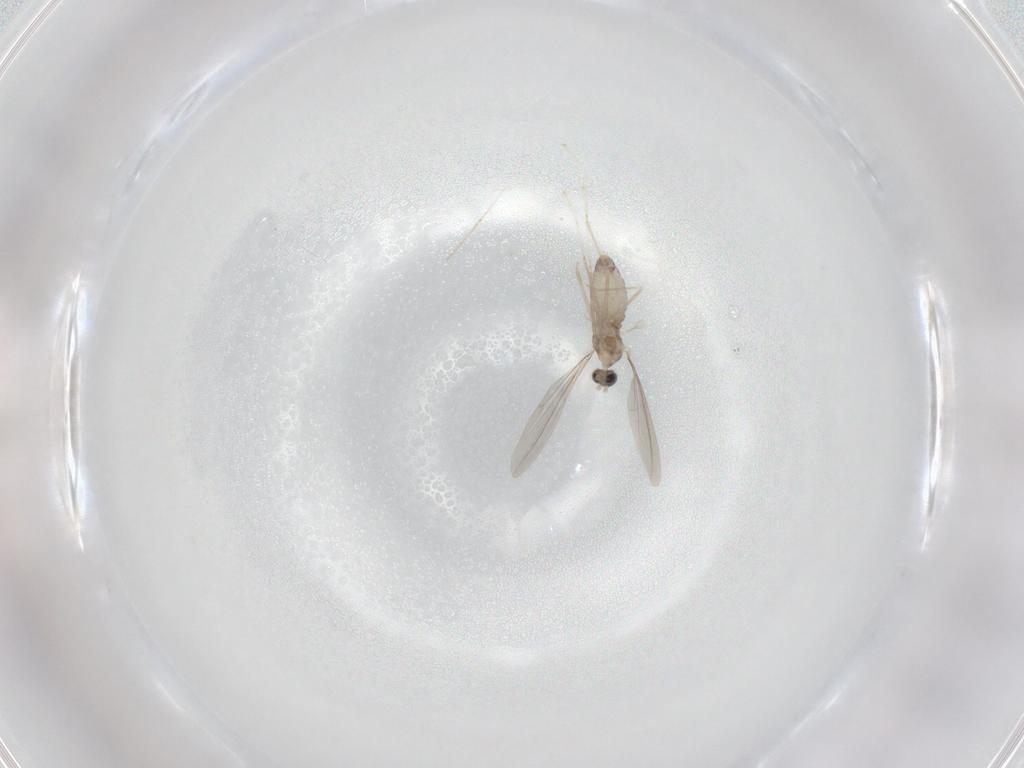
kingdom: Animalia
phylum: Arthropoda
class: Insecta
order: Diptera
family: Cecidomyiidae
